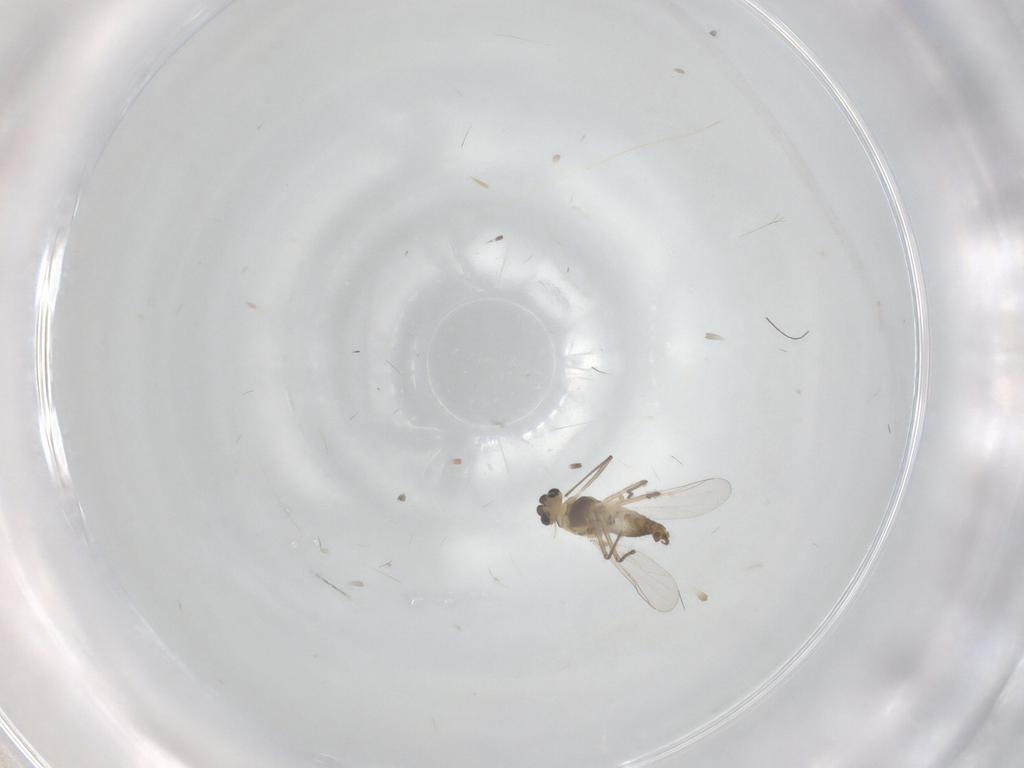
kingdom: Animalia
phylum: Arthropoda
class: Insecta
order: Diptera
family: Chironomidae
